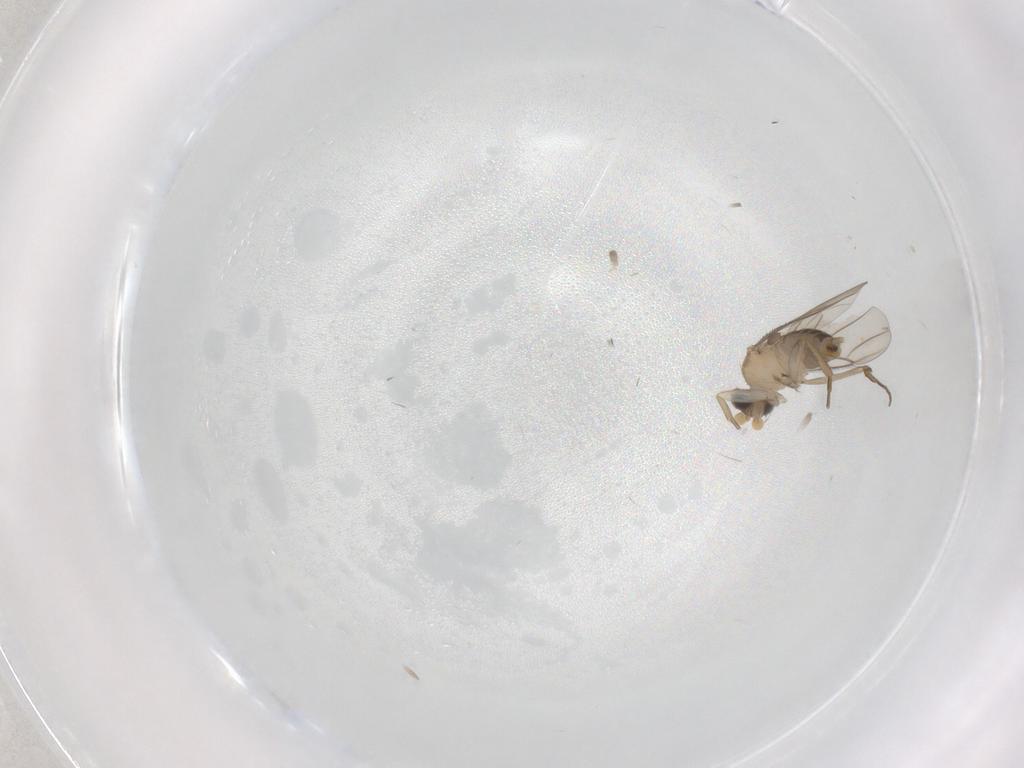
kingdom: Animalia
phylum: Arthropoda
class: Insecta
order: Diptera
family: Phoridae
